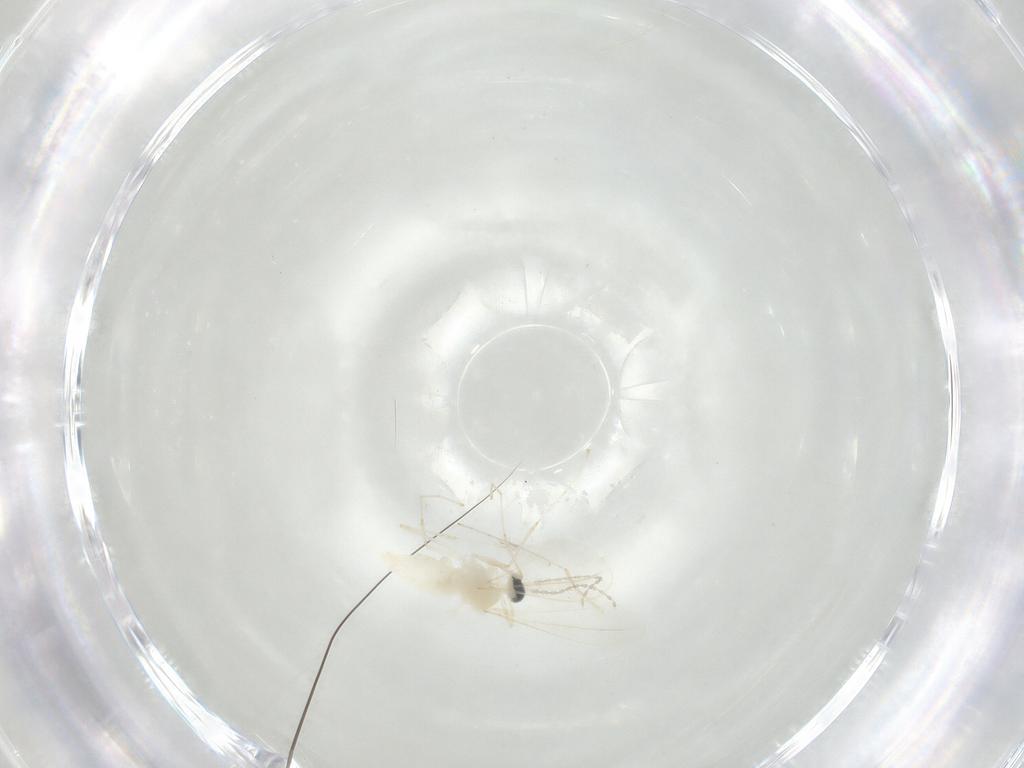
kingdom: Animalia
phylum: Arthropoda
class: Insecta
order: Diptera
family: Cecidomyiidae
